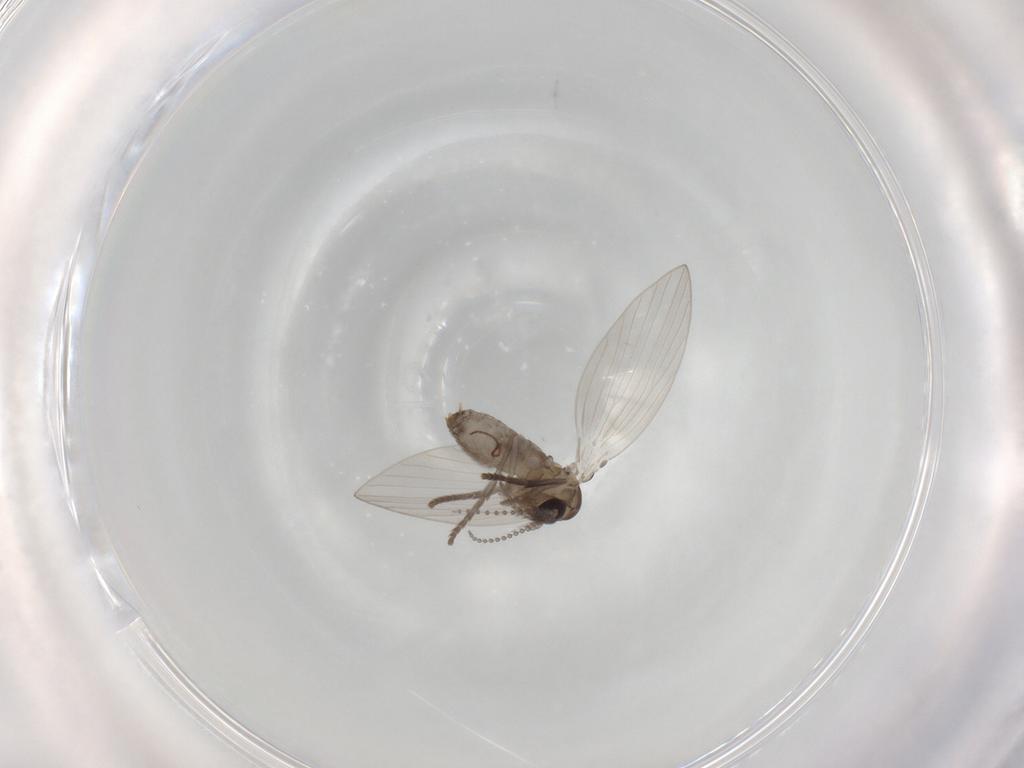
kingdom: Animalia
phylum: Arthropoda
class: Insecta
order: Diptera
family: Psychodidae
